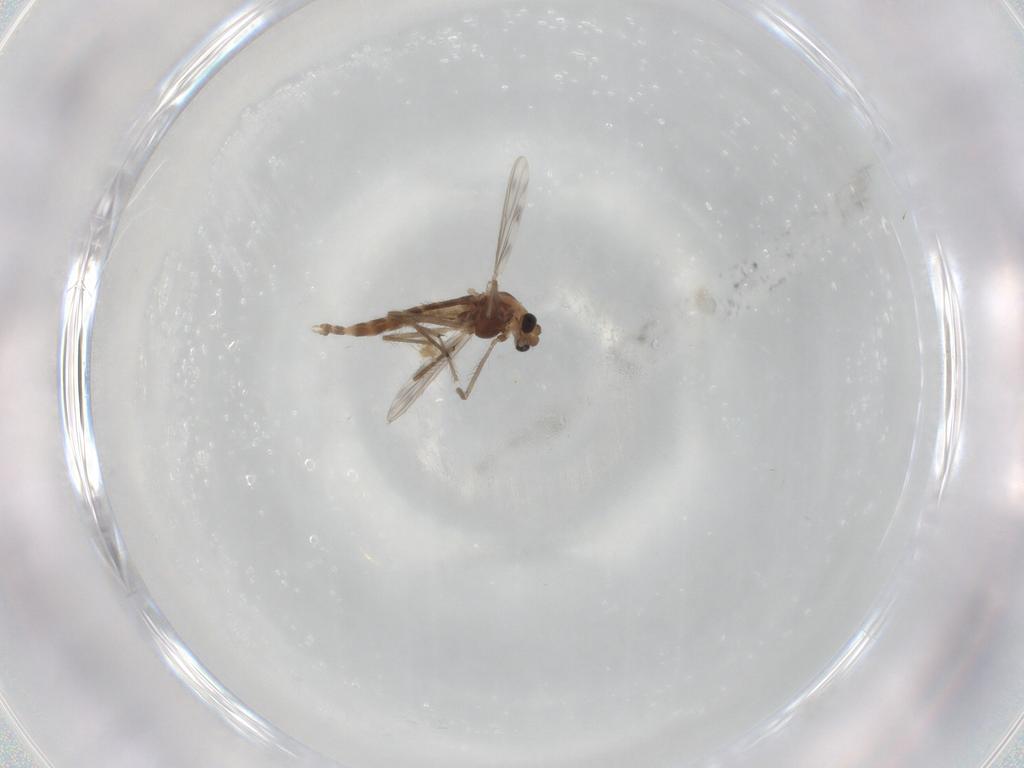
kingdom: Animalia
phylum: Arthropoda
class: Insecta
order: Diptera
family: Chironomidae
